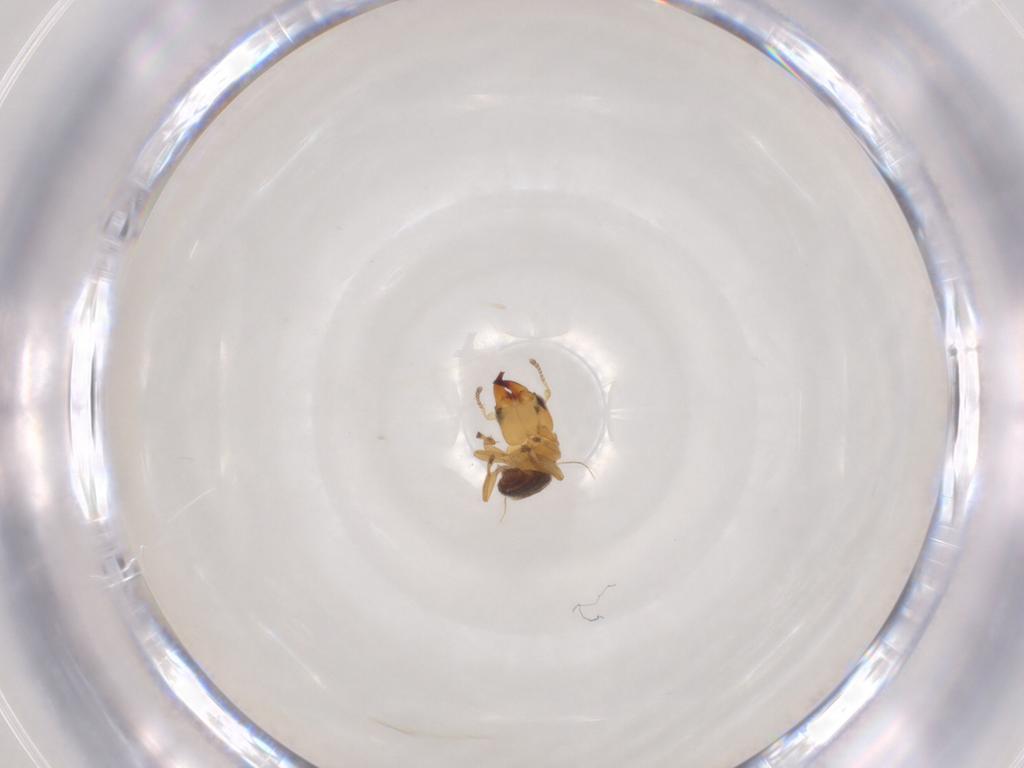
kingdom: Animalia
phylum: Arthropoda
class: Insecta
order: Hymenoptera
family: Pteromalidae
